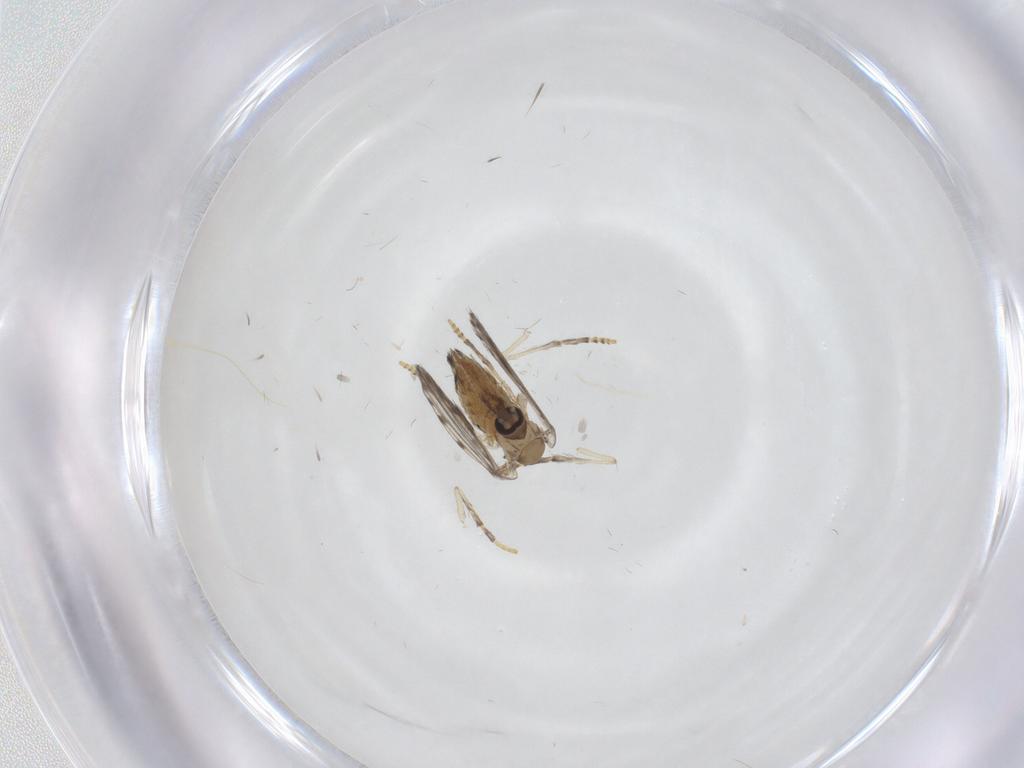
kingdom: Animalia
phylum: Arthropoda
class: Insecta
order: Diptera
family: Psychodidae
